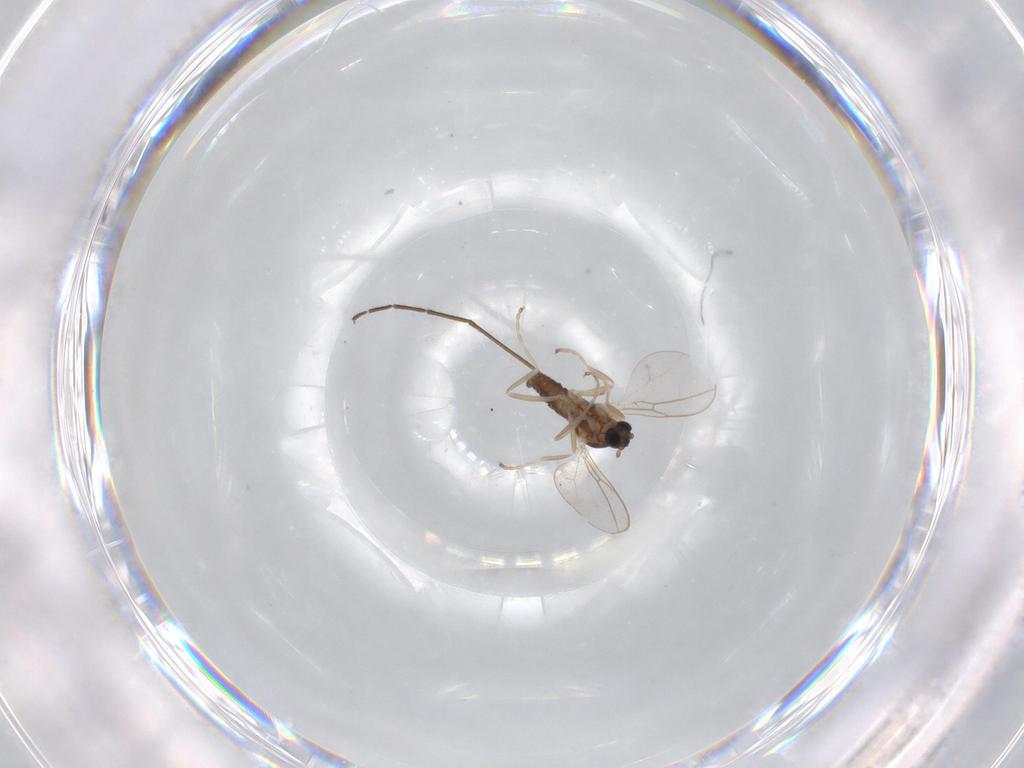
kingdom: Animalia
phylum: Arthropoda
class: Insecta
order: Diptera
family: Cecidomyiidae
